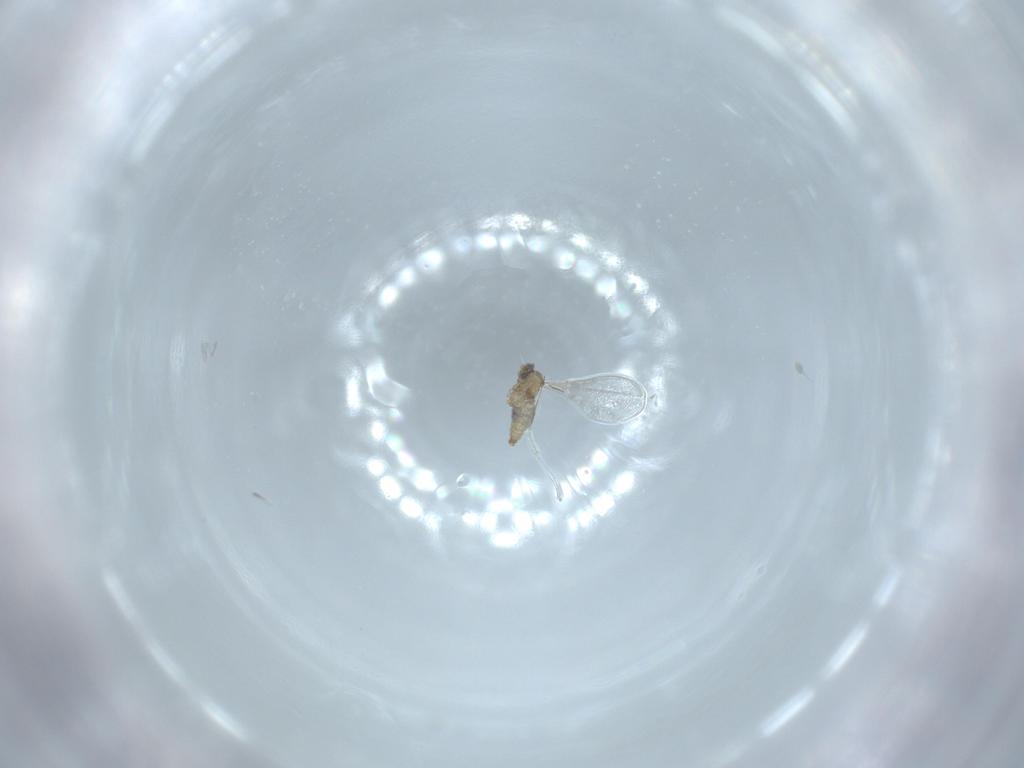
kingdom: Animalia
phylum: Arthropoda
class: Insecta
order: Diptera
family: Cecidomyiidae
